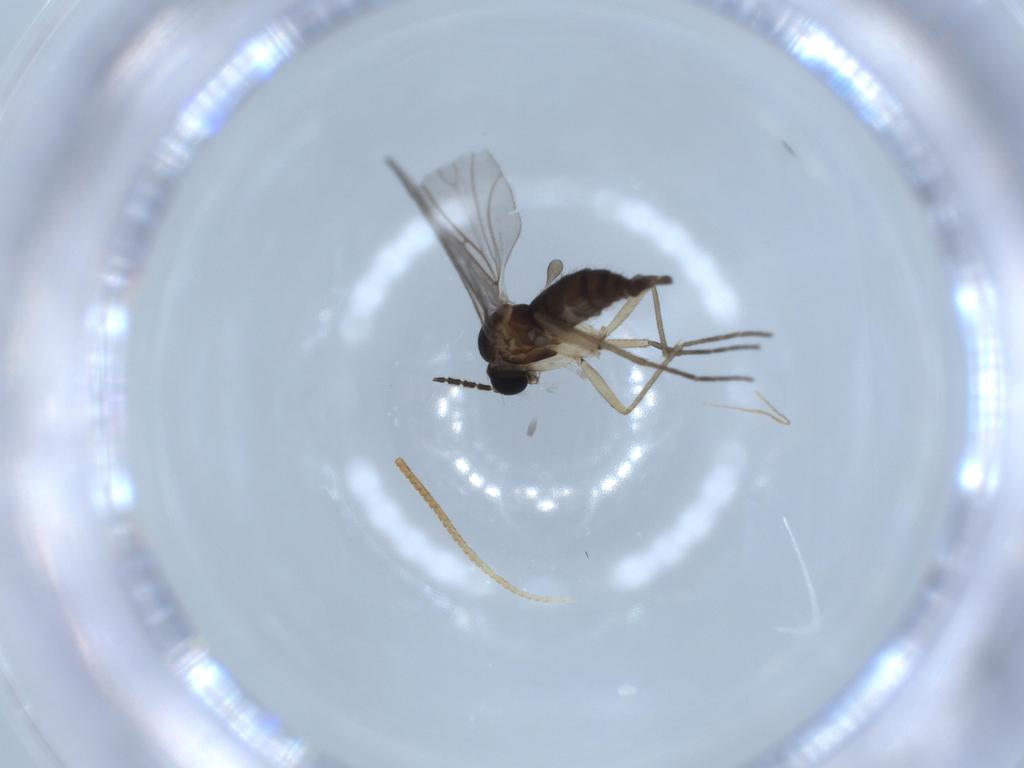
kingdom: Animalia
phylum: Arthropoda
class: Insecta
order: Diptera
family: Sciaridae
